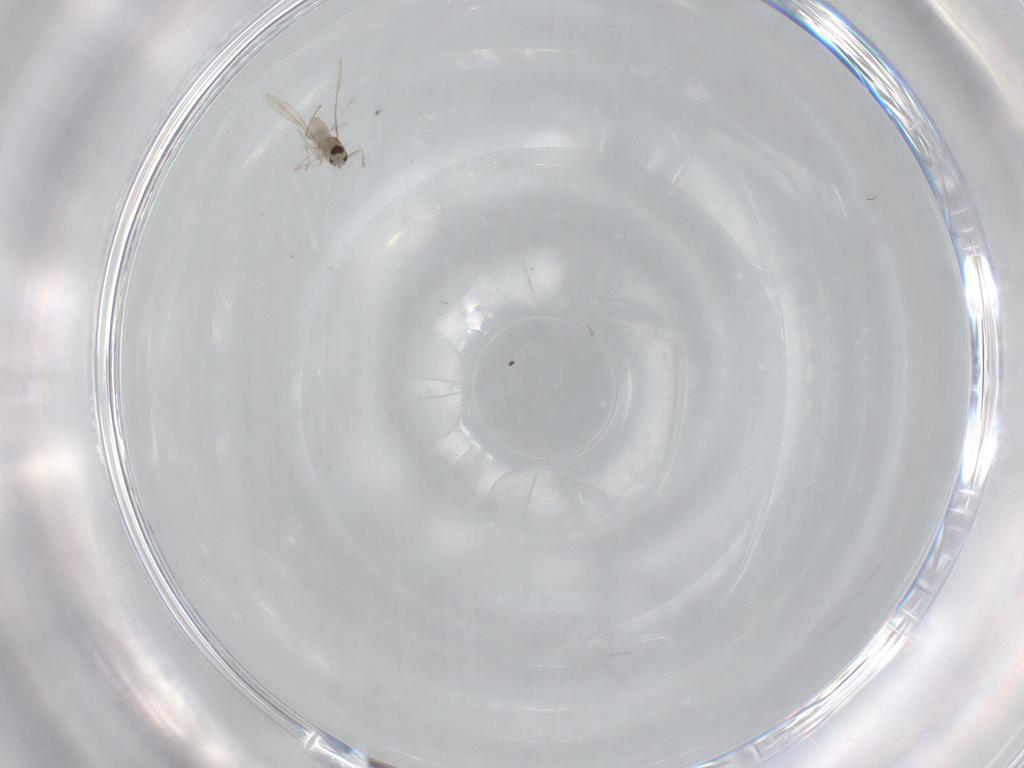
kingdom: Animalia
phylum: Arthropoda
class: Insecta
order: Diptera
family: Cecidomyiidae
